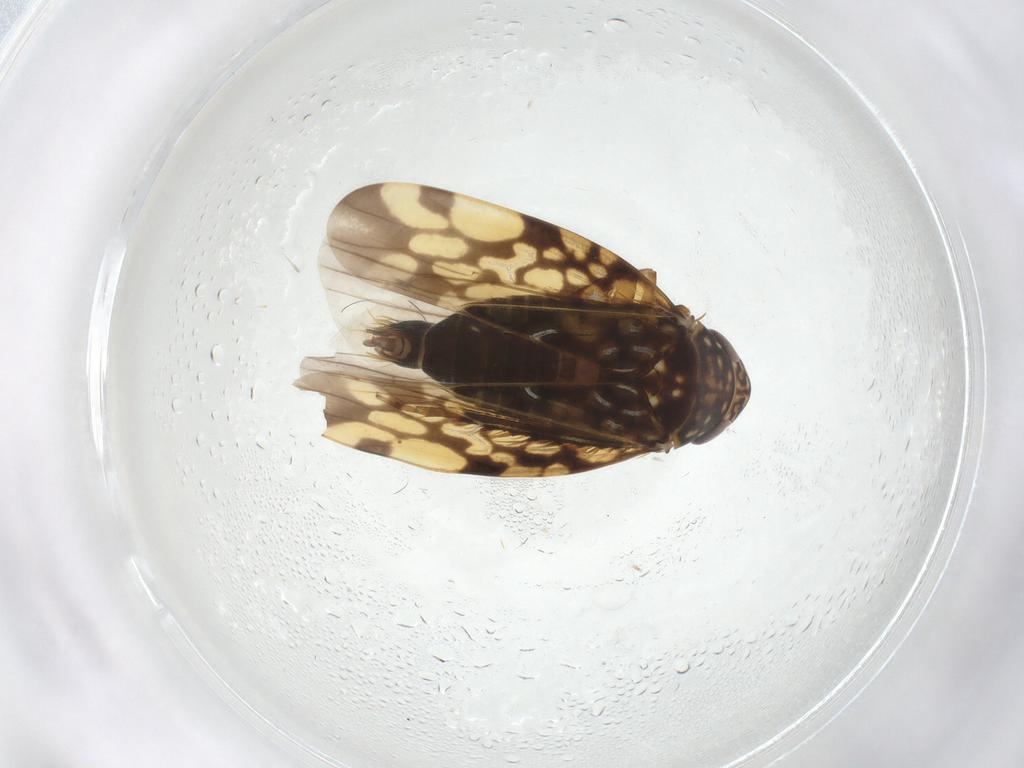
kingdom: Animalia
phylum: Arthropoda
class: Insecta
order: Hemiptera
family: Cicadellidae
